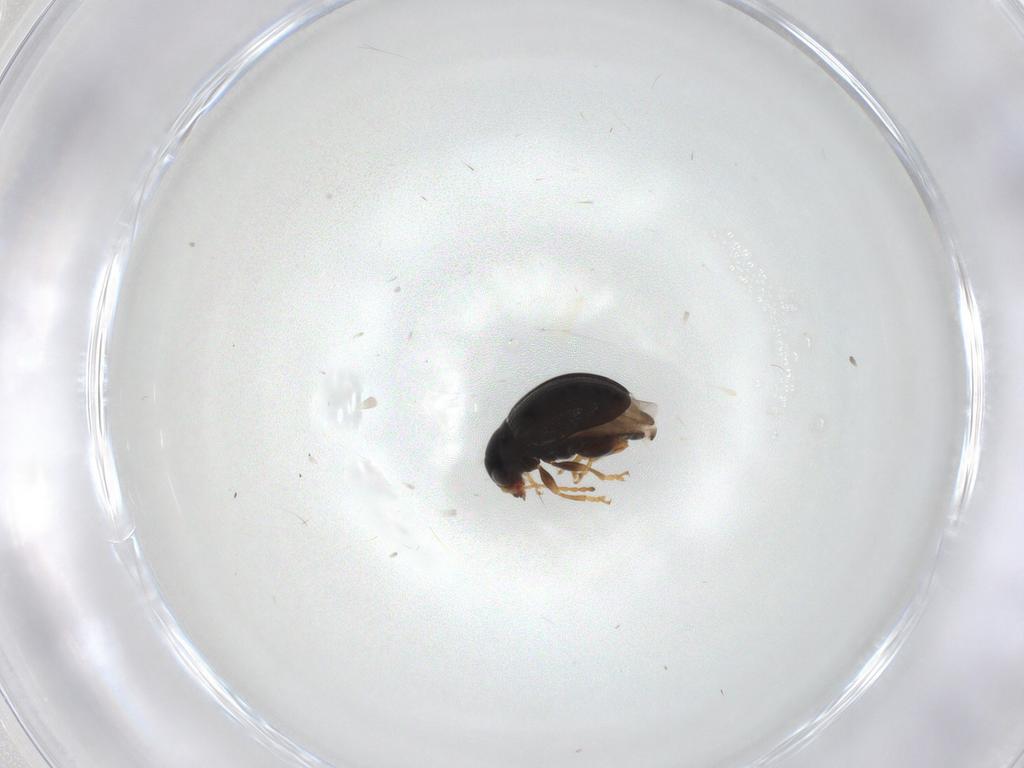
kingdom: Animalia
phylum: Arthropoda
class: Insecta
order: Coleoptera
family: Chrysomelidae
